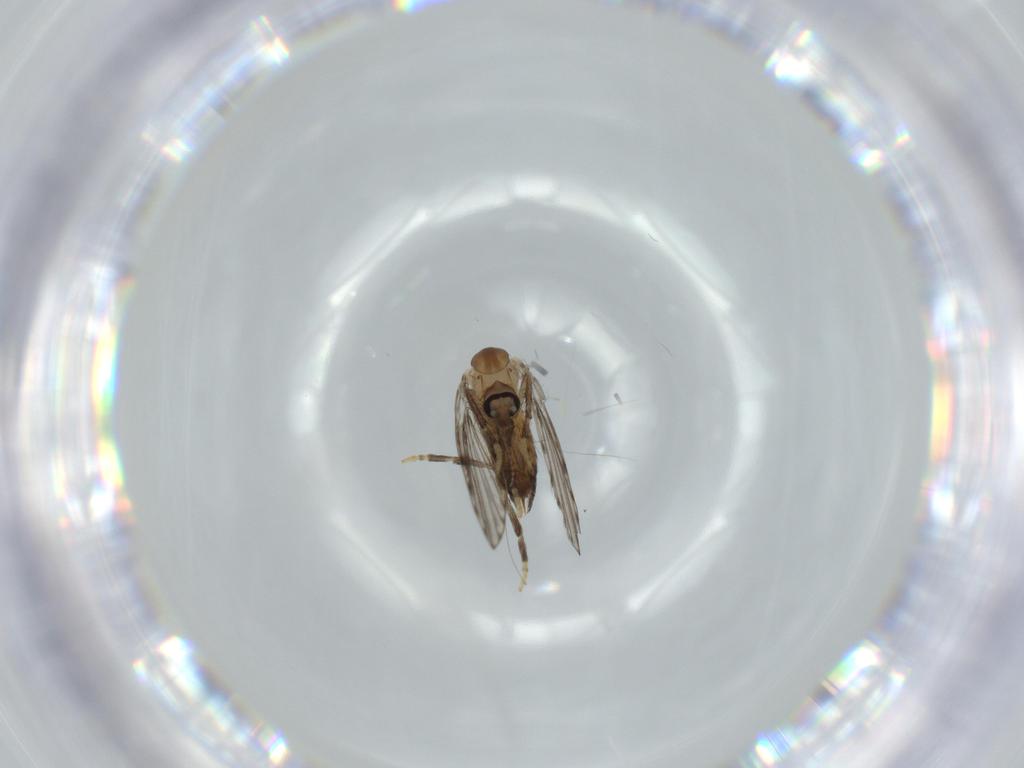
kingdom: Animalia
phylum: Arthropoda
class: Insecta
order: Diptera
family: Psychodidae
